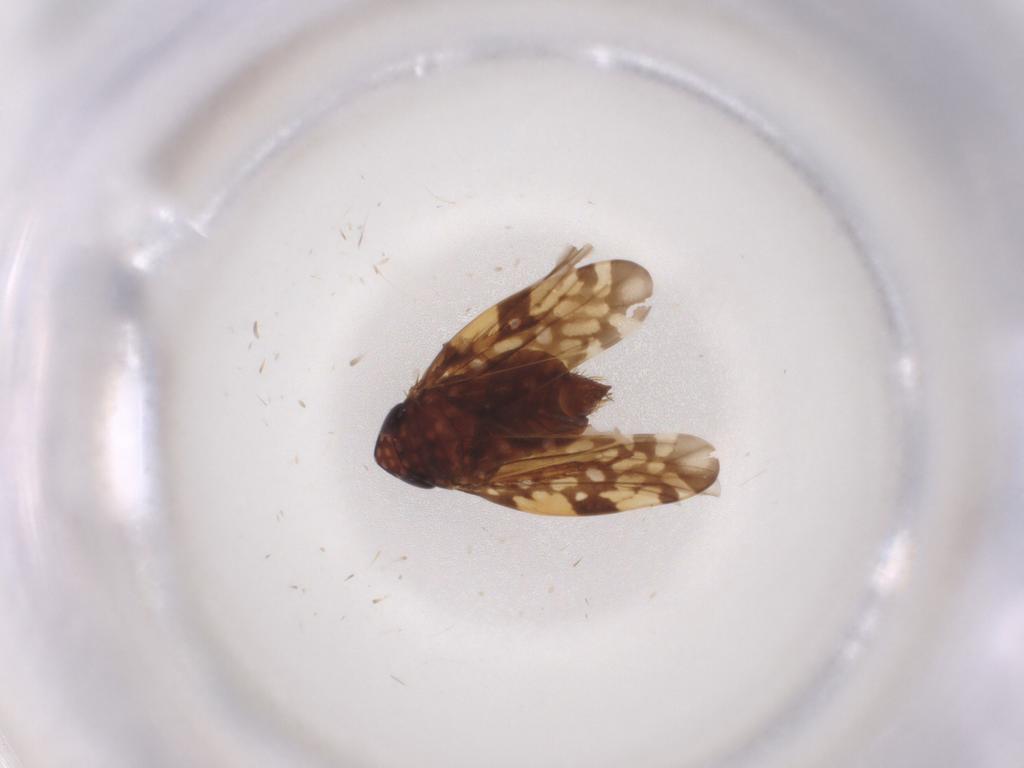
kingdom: Animalia
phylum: Arthropoda
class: Insecta
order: Hemiptera
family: Cicadellidae
